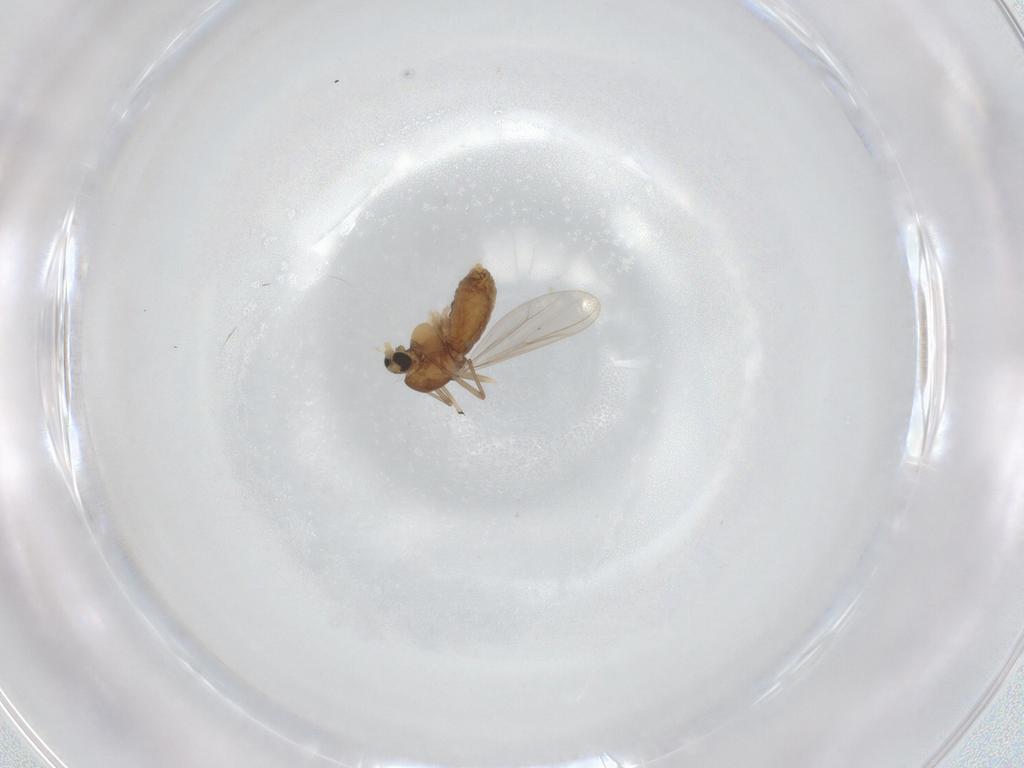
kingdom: Animalia
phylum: Arthropoda
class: Insecta
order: Diptera
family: Chironomidae
